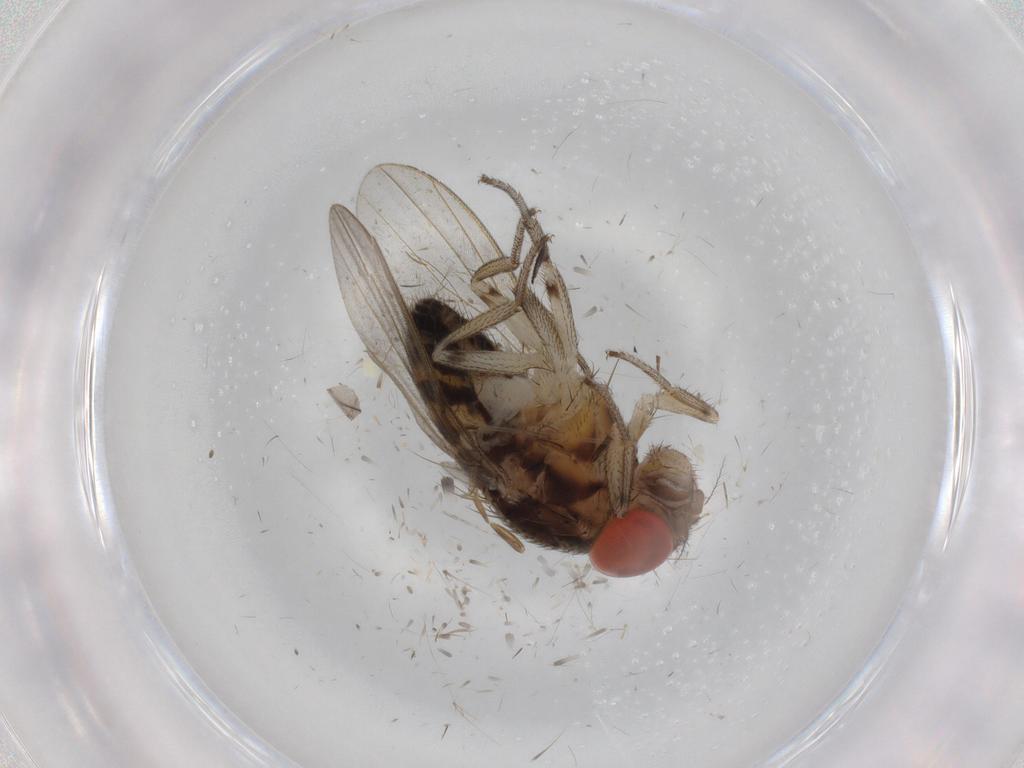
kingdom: Animalia
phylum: Arthropoda
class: Insecta
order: Diptera
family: Drosophilidae
